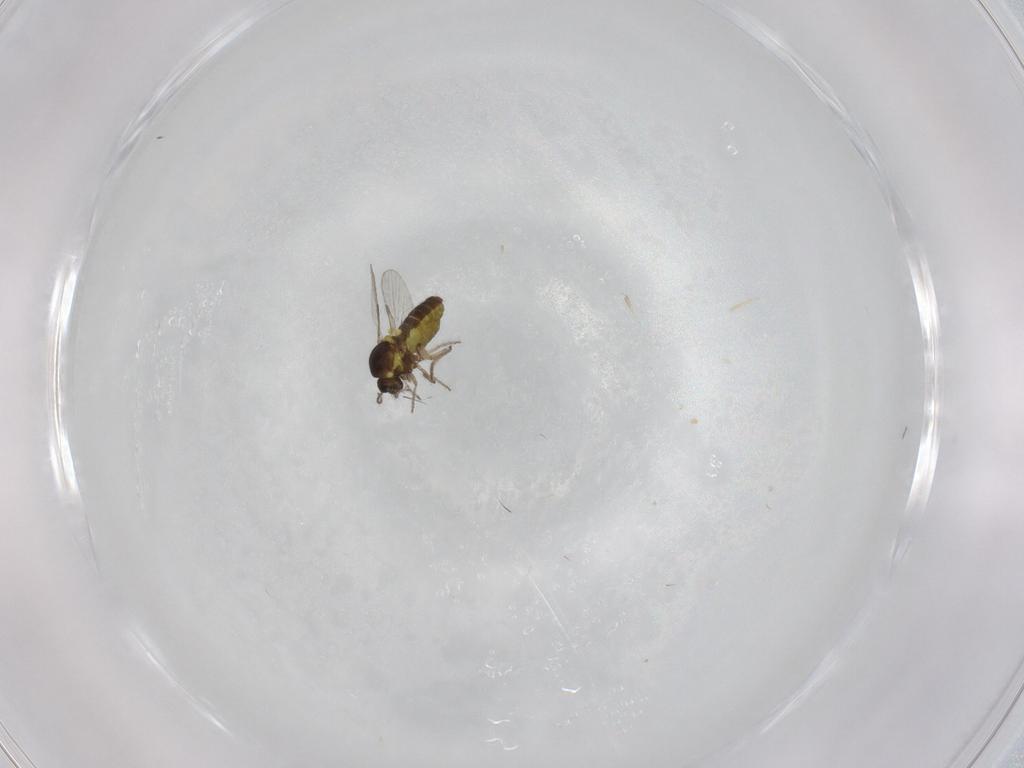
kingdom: Animalia
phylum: Arthropoda
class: Insecta
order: Diptera
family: Ceratopogonidae
